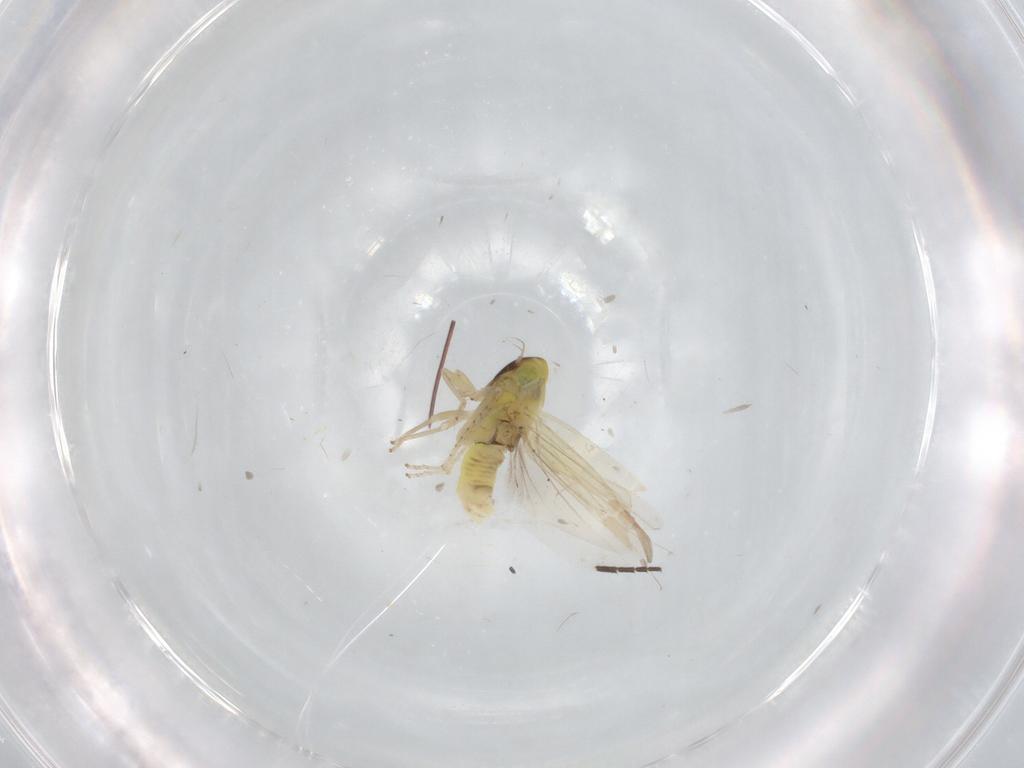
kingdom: Animalia
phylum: Arthropoda
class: Insecta
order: Hemiptera
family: Cicadellidae
